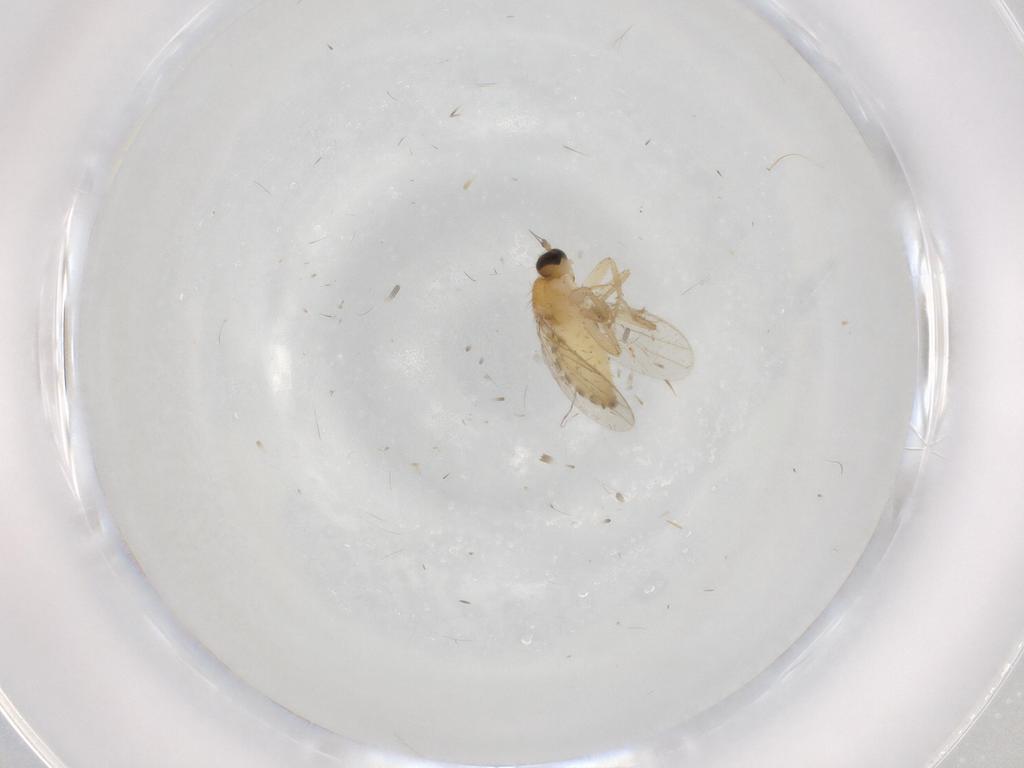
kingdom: Animalia
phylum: Arthropoda
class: Insecta
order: Diptera
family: Hybotidae
